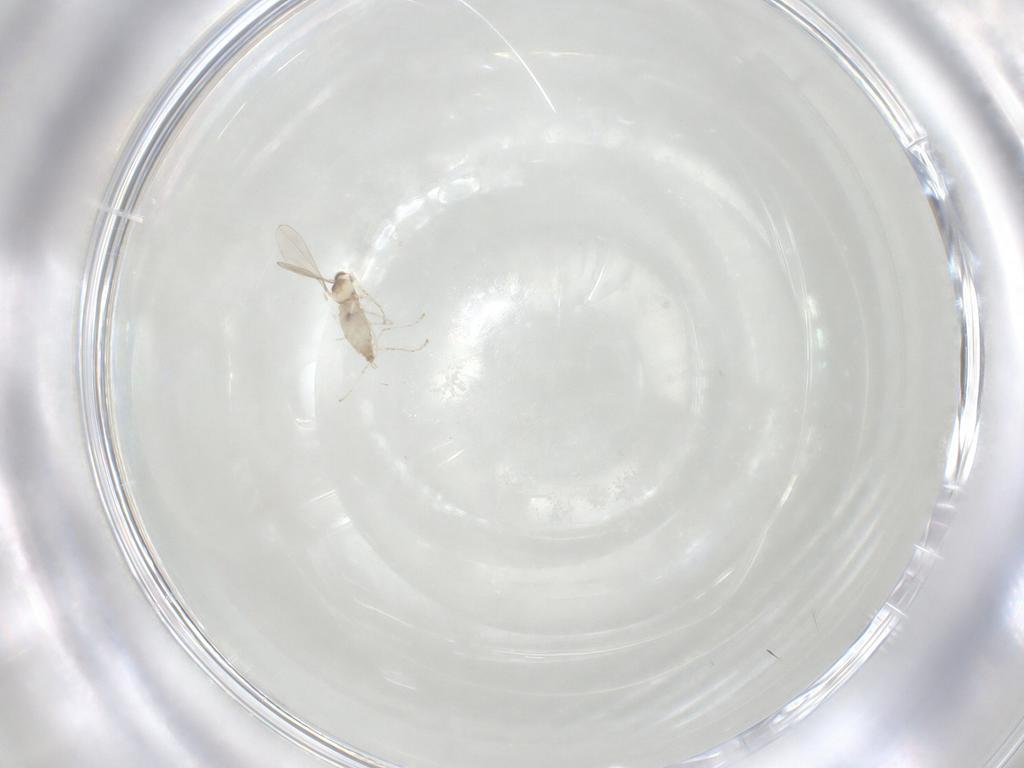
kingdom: Animalia
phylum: Arthropoda
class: Insecta
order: Diptera
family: Cecidomyiidae
